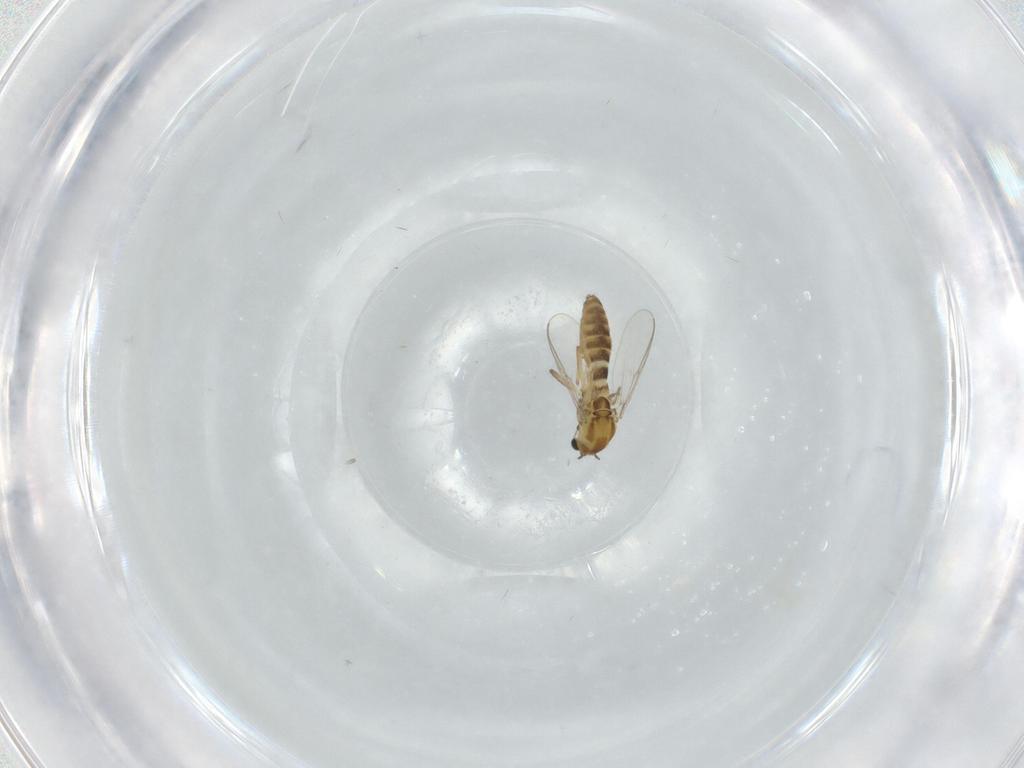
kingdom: Animalia
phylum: Arthropoda
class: Insecta
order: Diptera
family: Chironomidae
